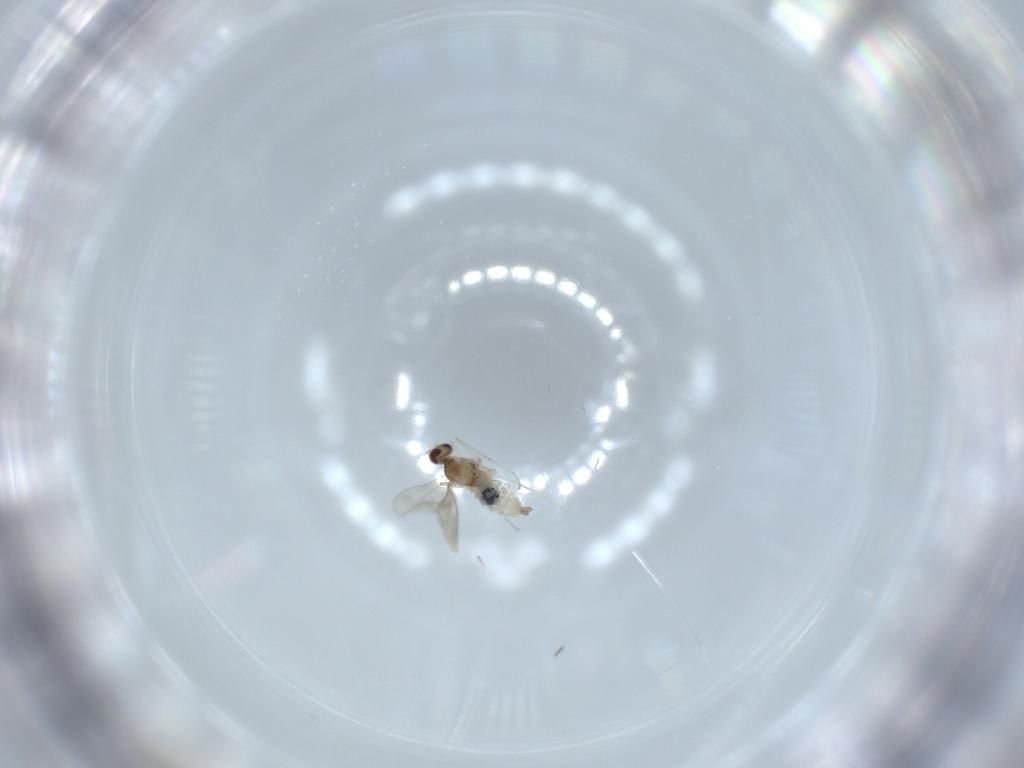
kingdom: Animalia
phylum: Arthropoda
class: Insecta
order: Diptera
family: Cecidomyiidae
